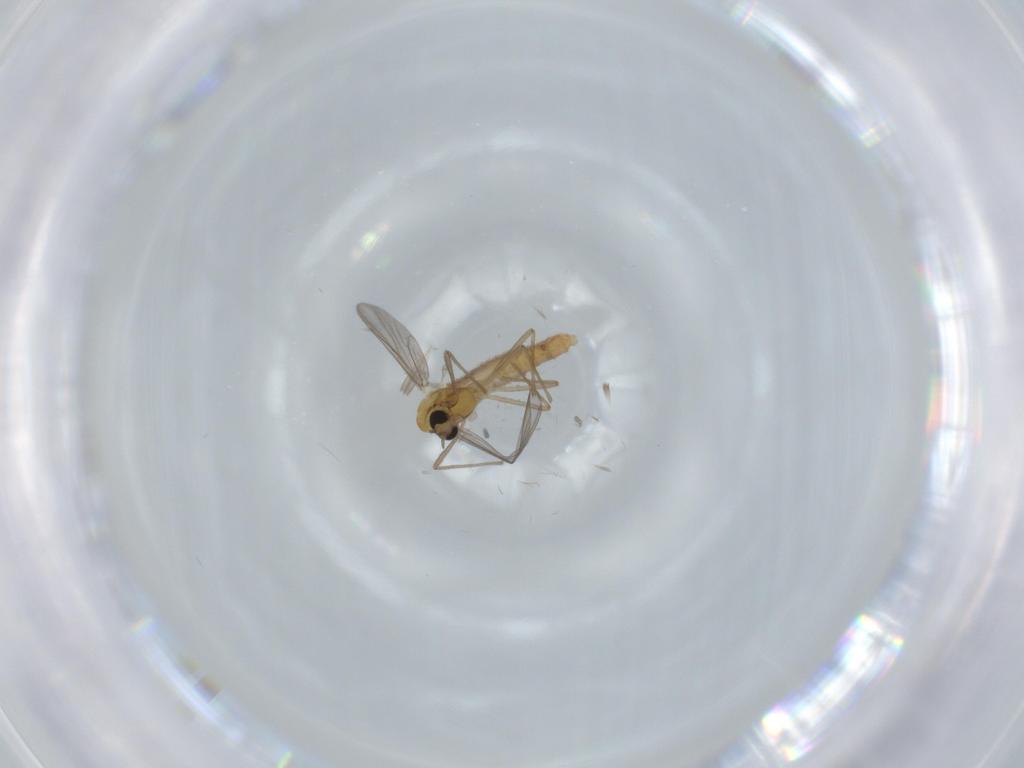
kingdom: Animalia
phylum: Arthropoda
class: Insecta
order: Diptera
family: Chironomidae
